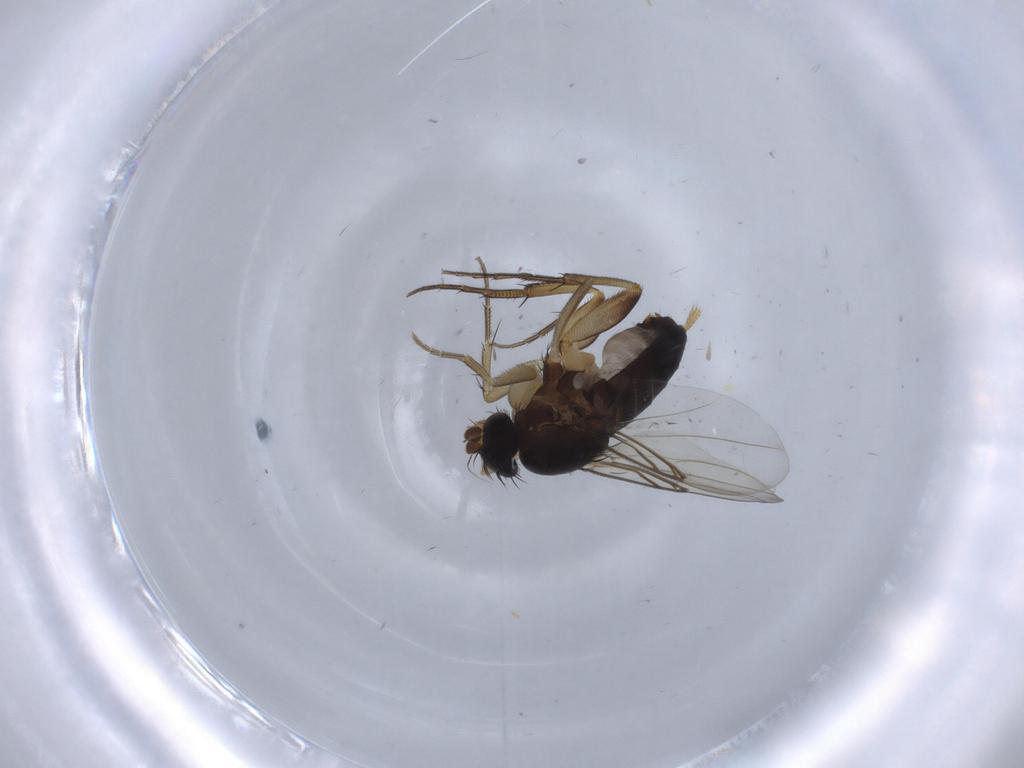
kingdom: Animalia
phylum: Arthropoda
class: Insecta
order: Diptera
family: Phoridae
